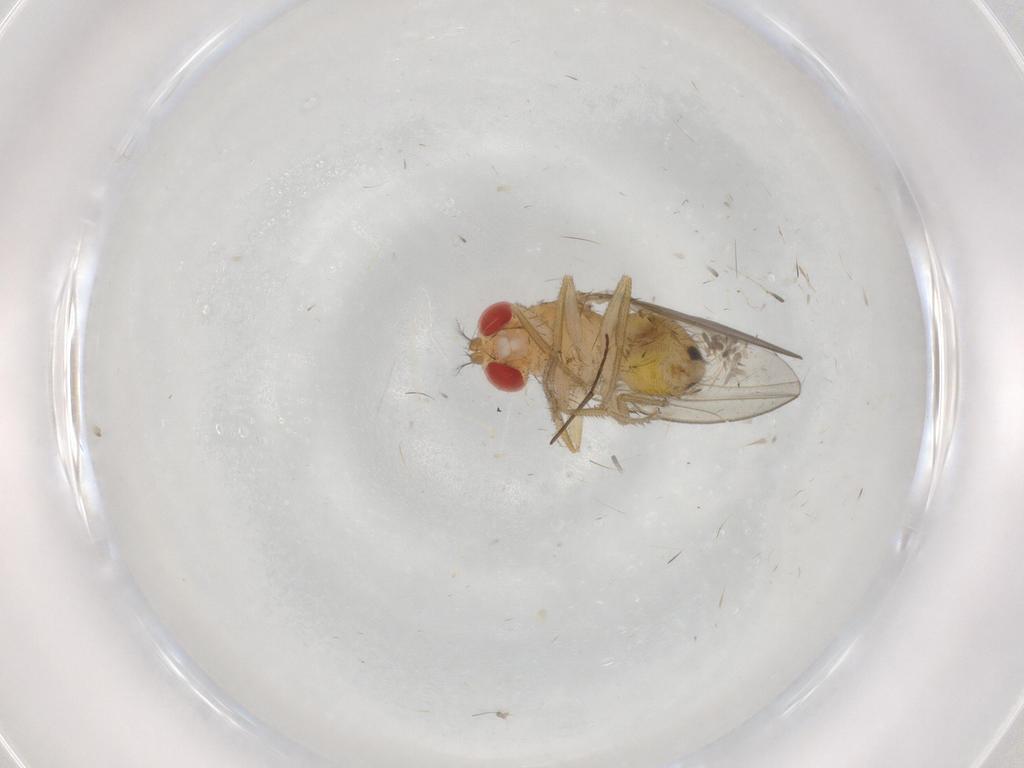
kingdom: Animalia
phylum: Arthropoda
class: Insecta
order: Diptera
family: Drosophilidae
